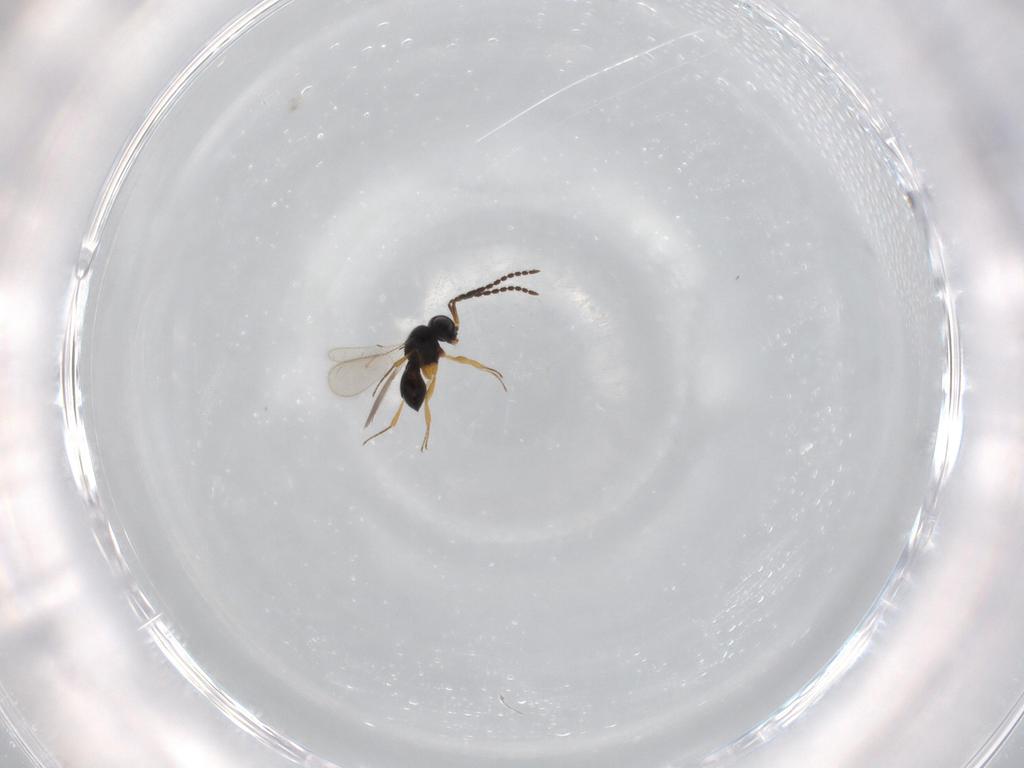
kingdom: Animalia
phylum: Arthropoda
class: Insecta
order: Hymenoptera
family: Scelionidae
